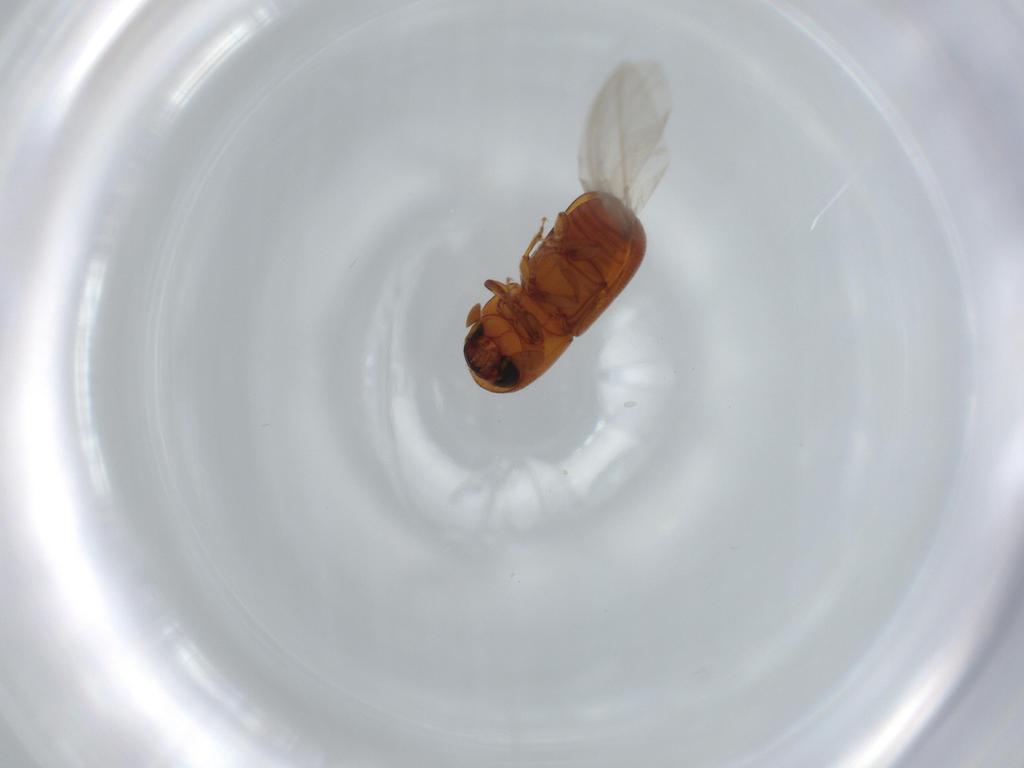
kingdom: Animalia
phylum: Arthropoda
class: Insecta
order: Coleoptera
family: Curculionidae
